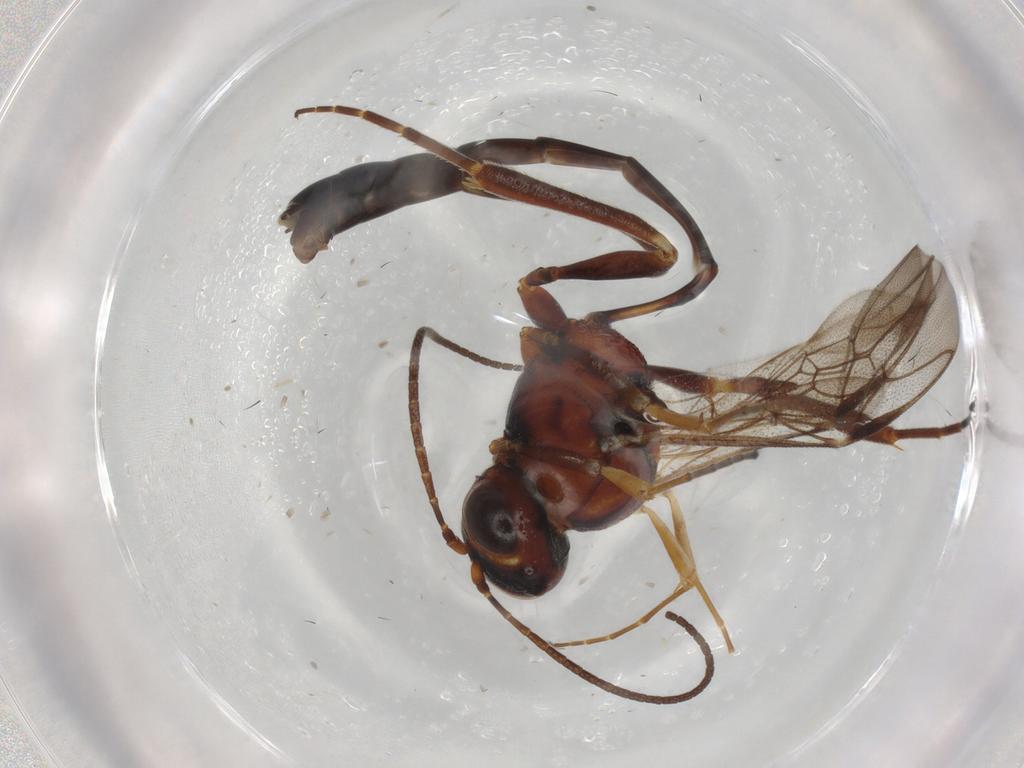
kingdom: Animalia
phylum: Arthropoda
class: Insecta
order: Hymenoptera
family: Ichneumonidae
